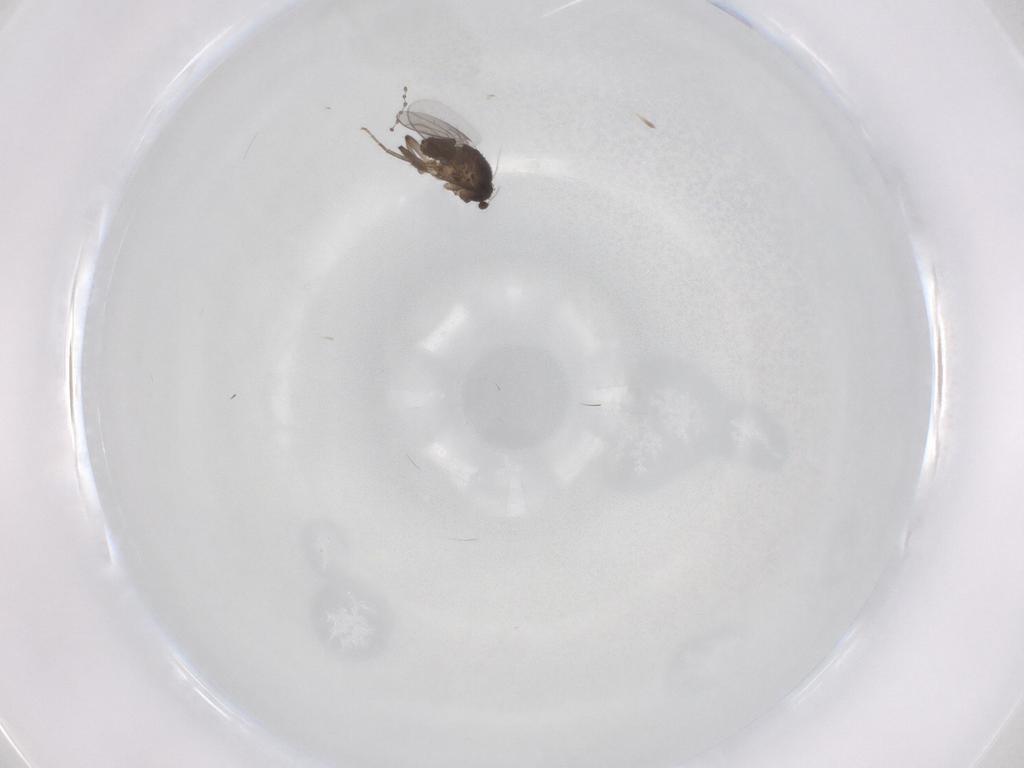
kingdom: Animalia
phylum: Arthropoda
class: Insecta
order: Diptera
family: Cecidomyiidae
